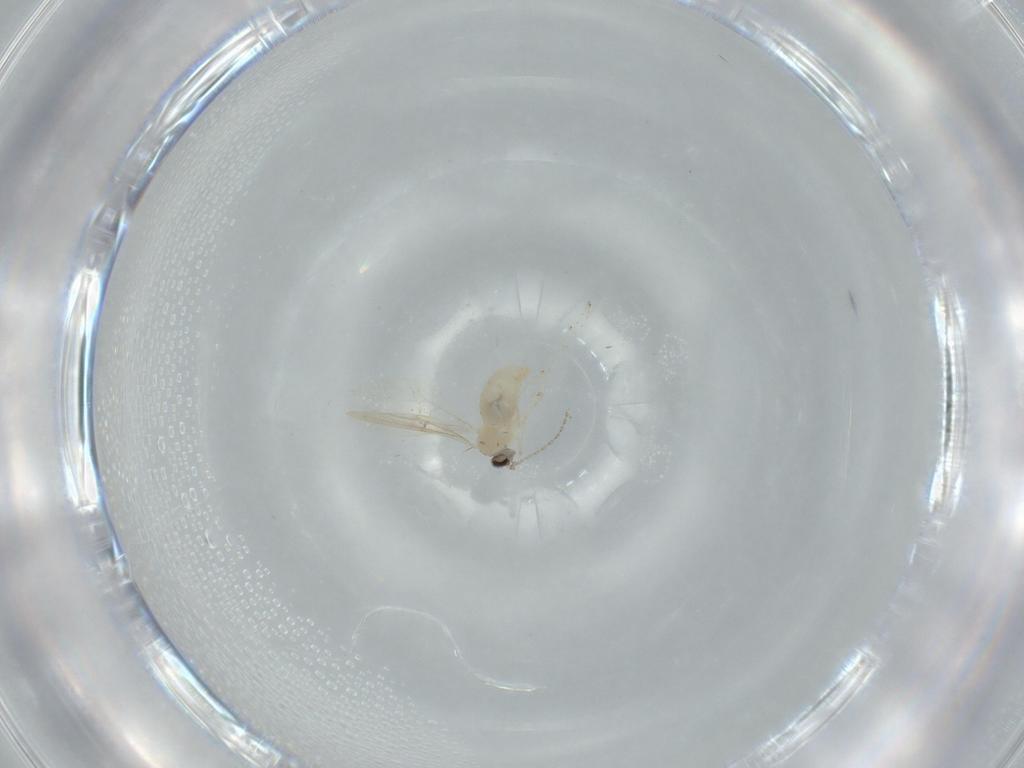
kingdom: Animalia
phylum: Arthropoda
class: Insecta
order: Diptera
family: Cecidomyiidae
